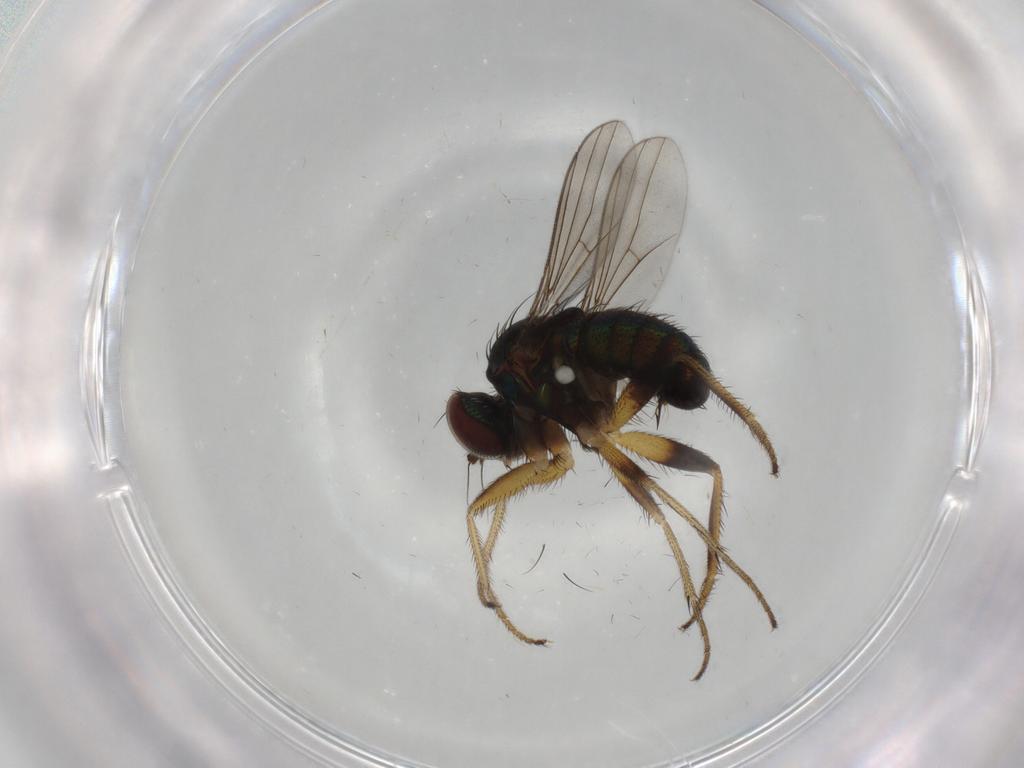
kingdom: Animalia
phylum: Arthropoda
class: Insecta
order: Diptera
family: Dolichopodidae
